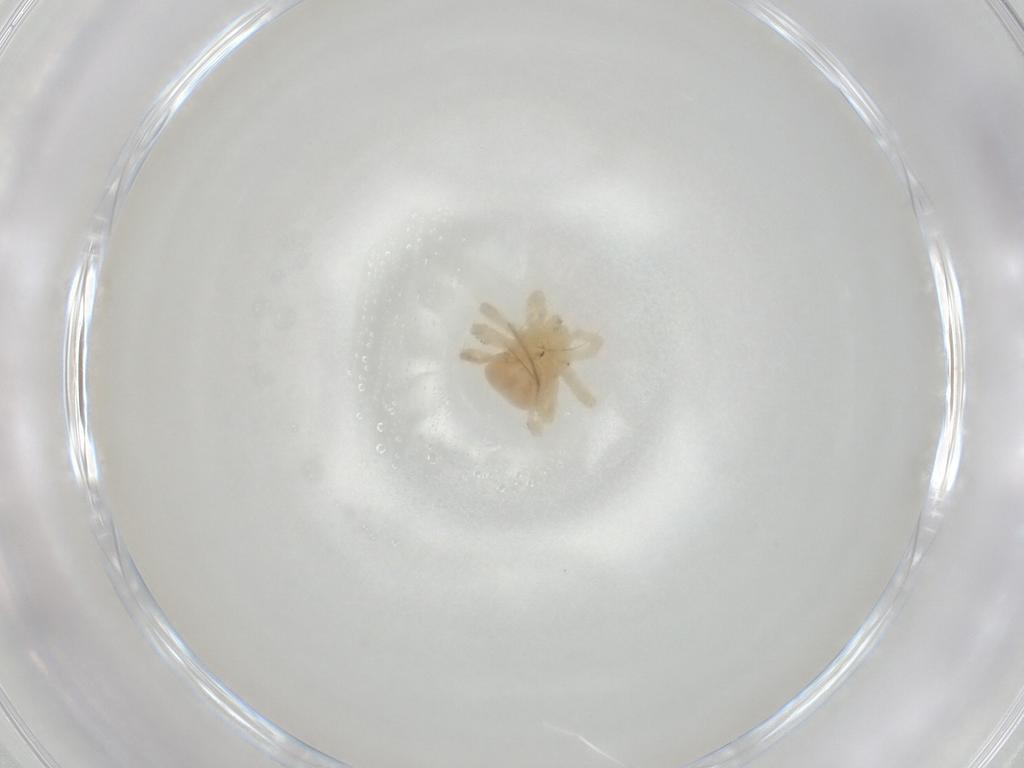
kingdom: Animalia
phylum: Arthropoda
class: Arachnida
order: Trombidiformes
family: Anystidae
